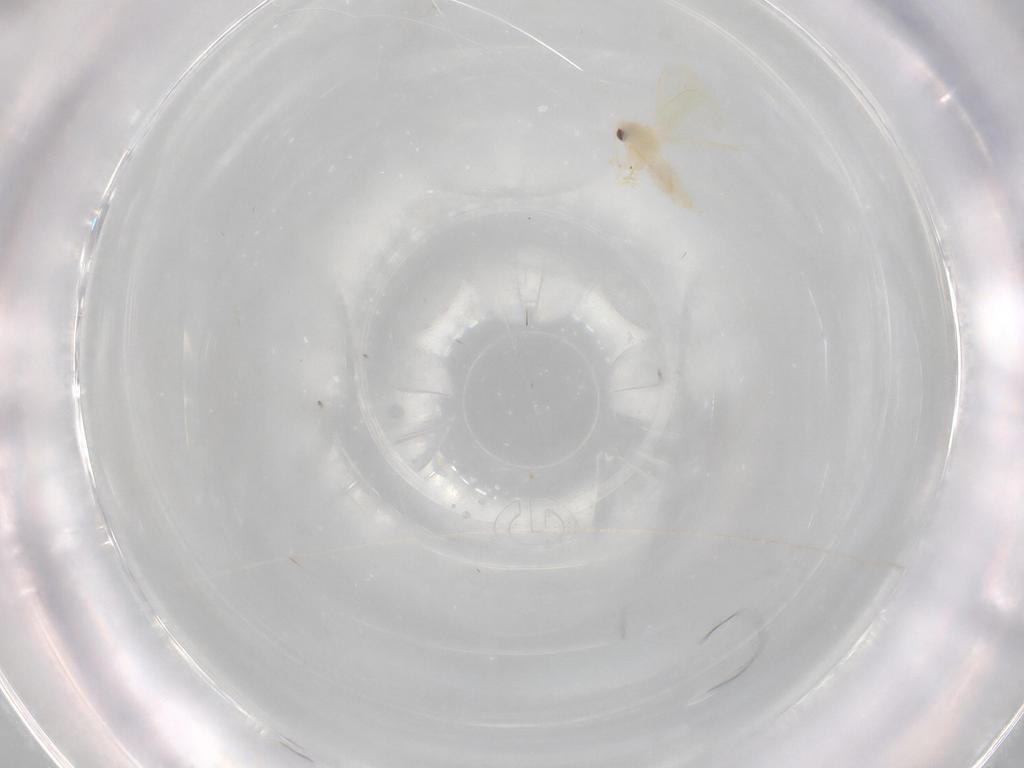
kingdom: Animalia
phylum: Arthropoda
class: Insecta
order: Hemiptera
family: Aleyrodidae
